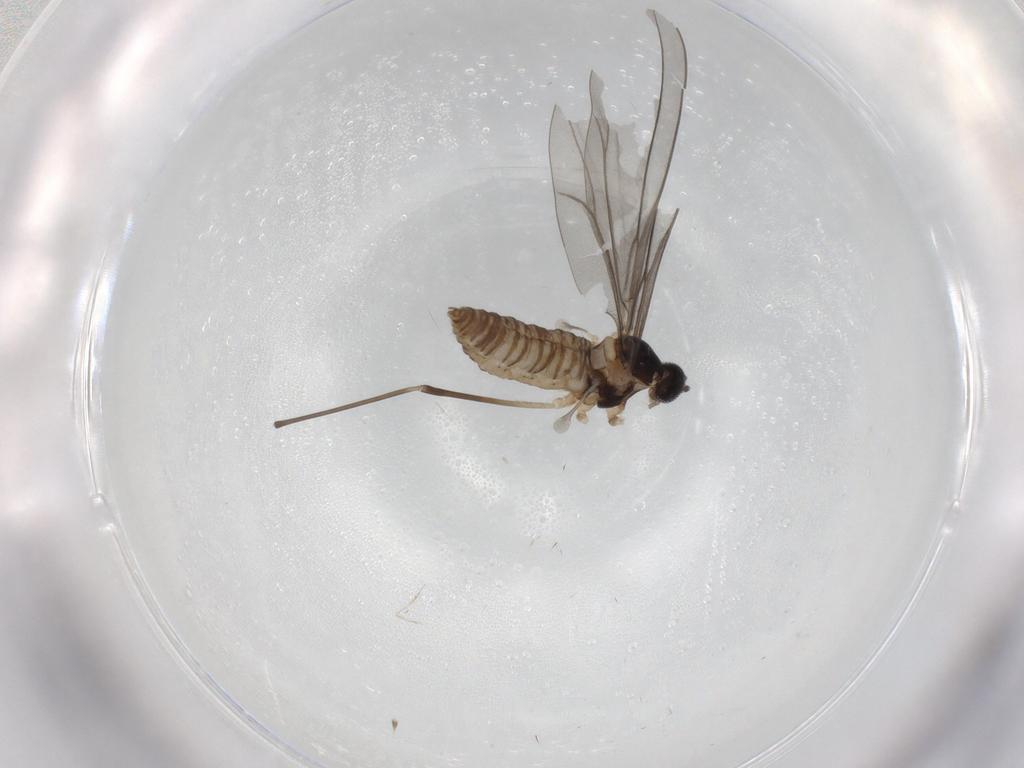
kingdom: Animalia
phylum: Arthropoda
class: Insecta
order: Diptera
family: Cecidomyiidae
